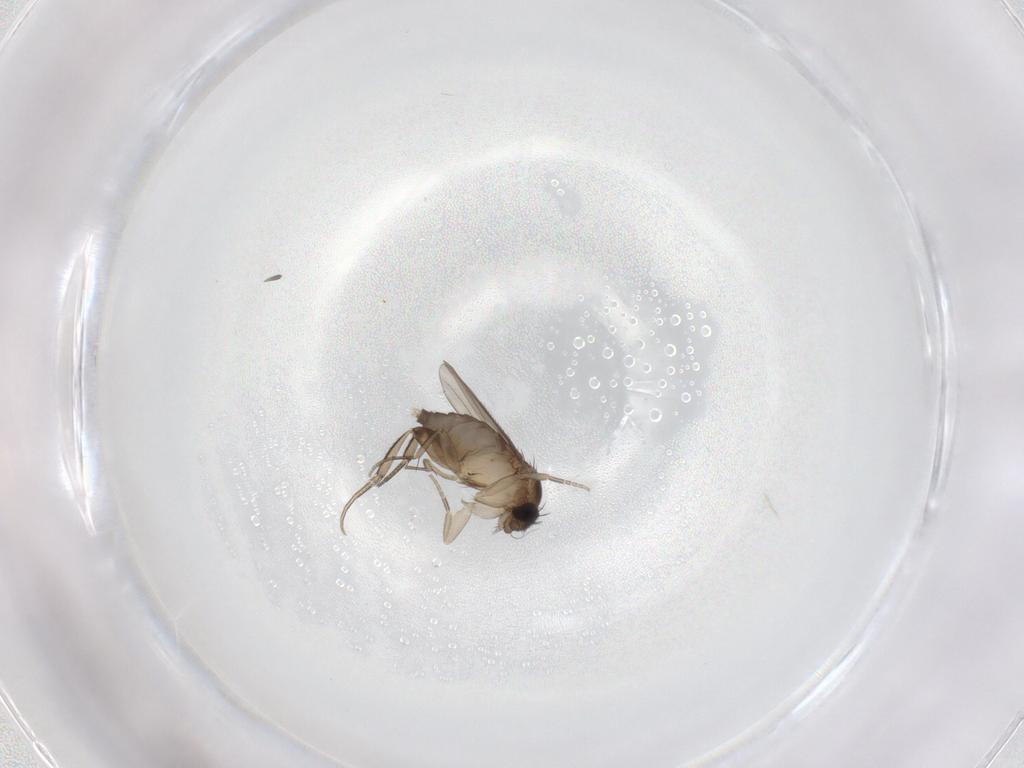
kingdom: Animalia
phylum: Arthropoda
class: Insecta
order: Diptera
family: Phoridae
